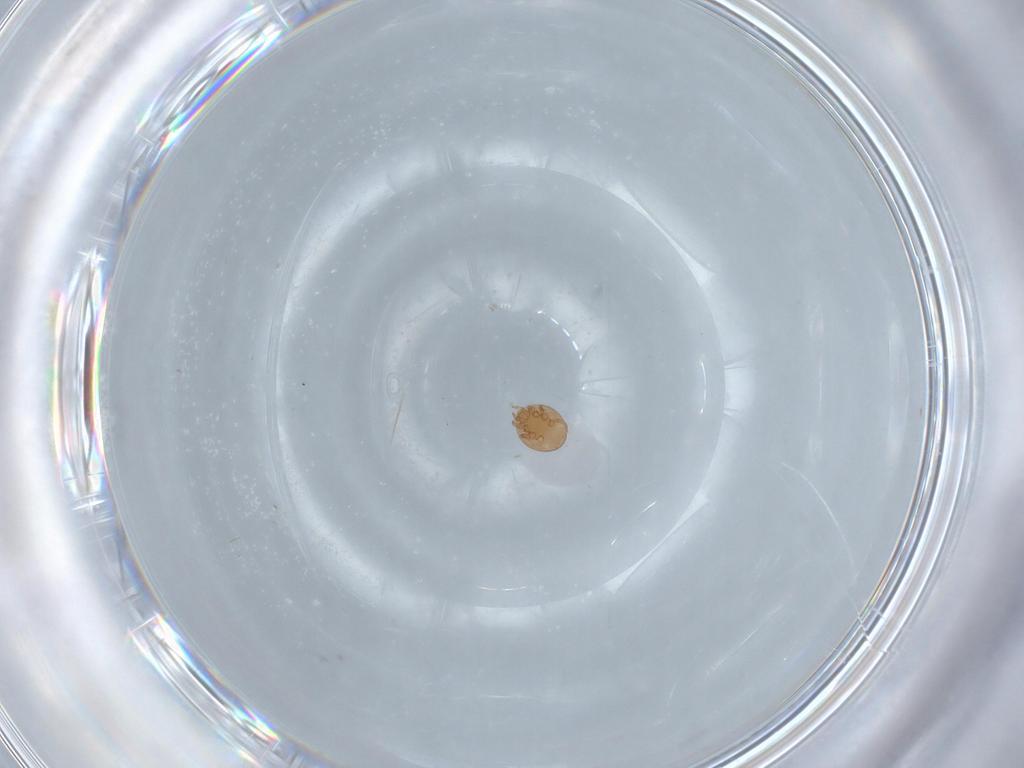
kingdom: Animalia
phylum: Arthropoda
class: Arachnida
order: Mesostigmata
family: Trematuridae
